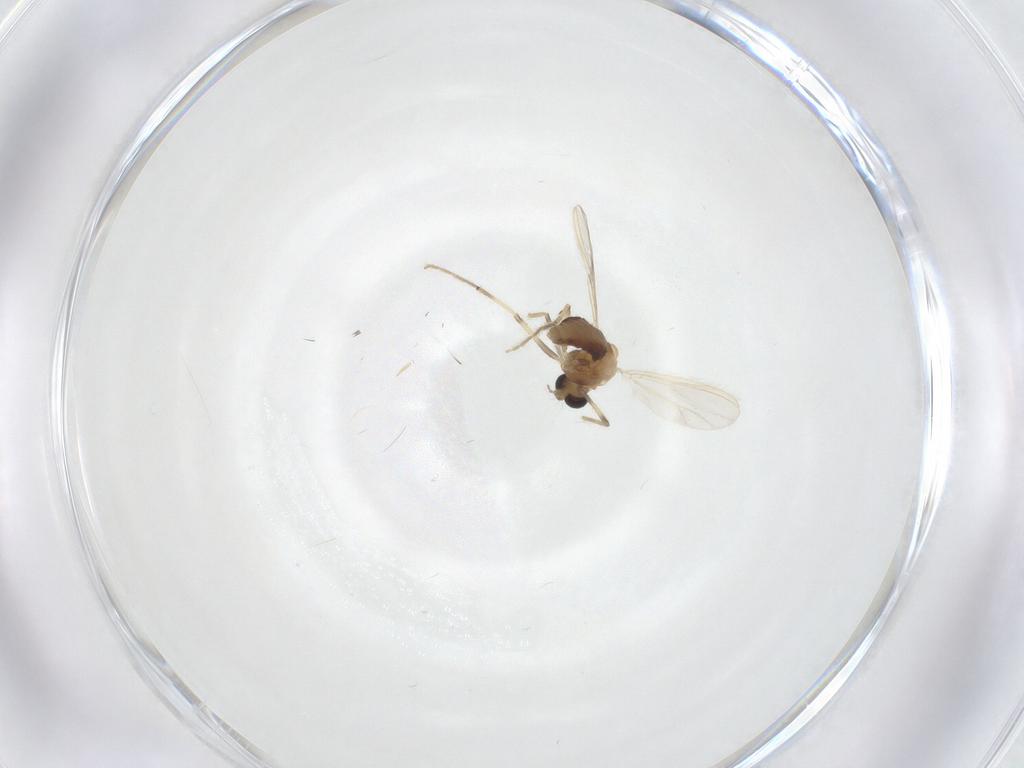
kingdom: Animalia
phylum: Arthropoda
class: Insecta
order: Diptera
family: Chironomidae
